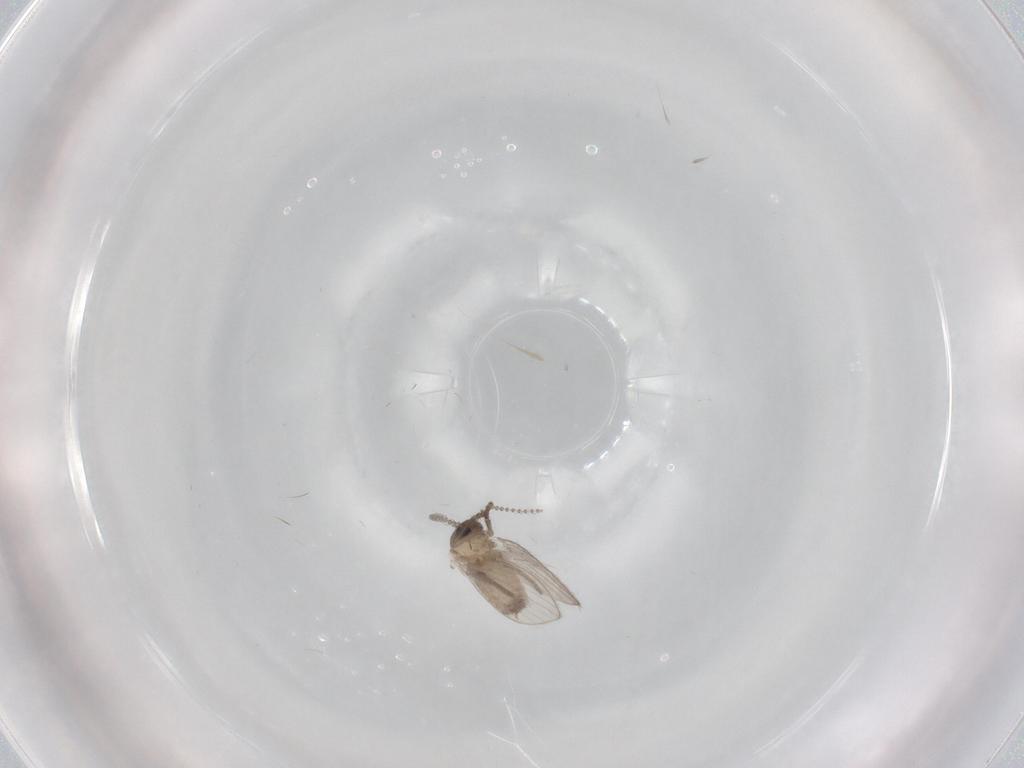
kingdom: Animalia
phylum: Arthropoda
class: Insecta
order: Diptera
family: Psychodidae
